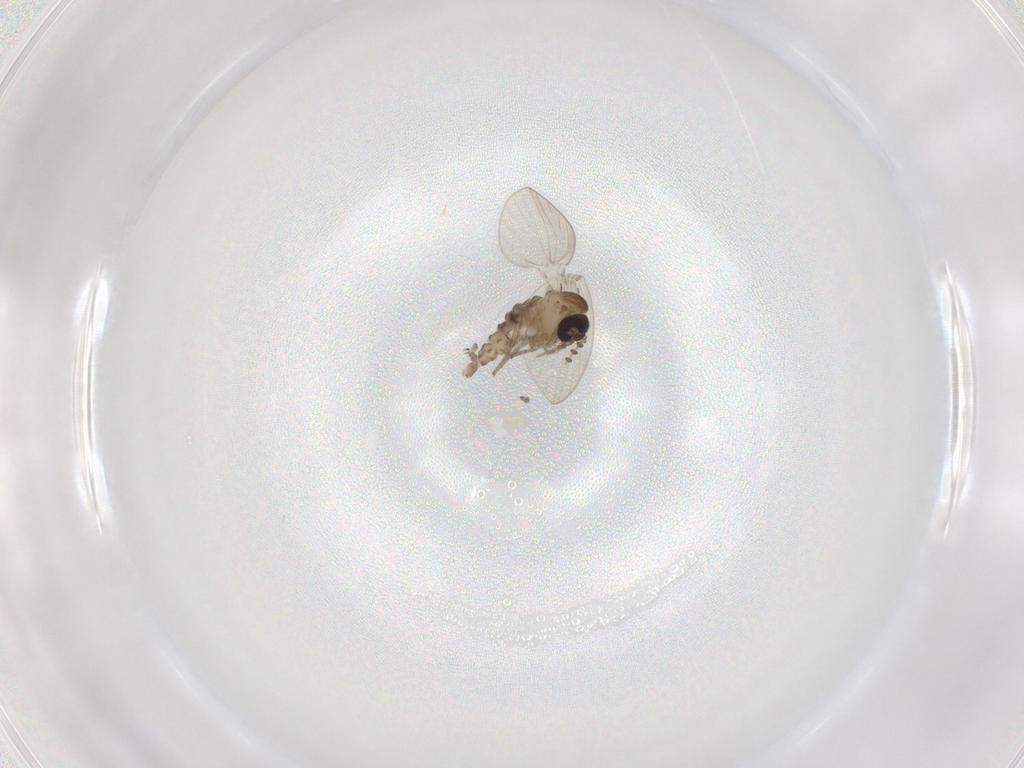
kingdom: Animalia
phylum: Arthropoda
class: Insecta
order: Diptera
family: Psychodidae
